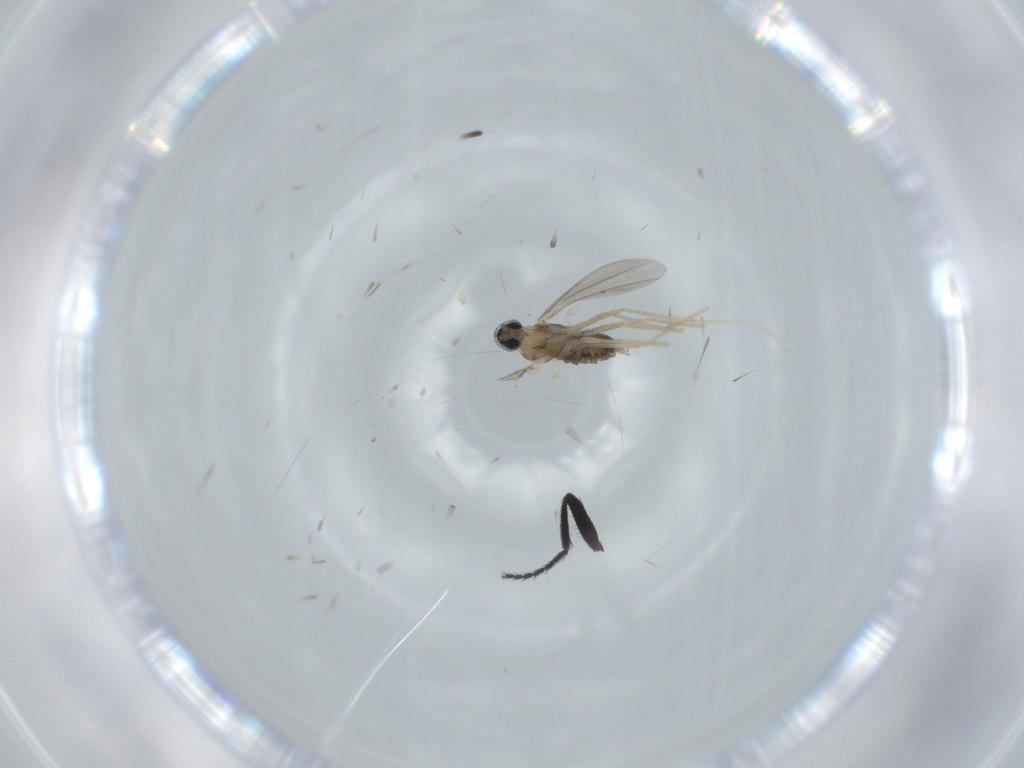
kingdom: Animalia
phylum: Arthropoda
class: Insecta
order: Diptera
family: Milichiidae
